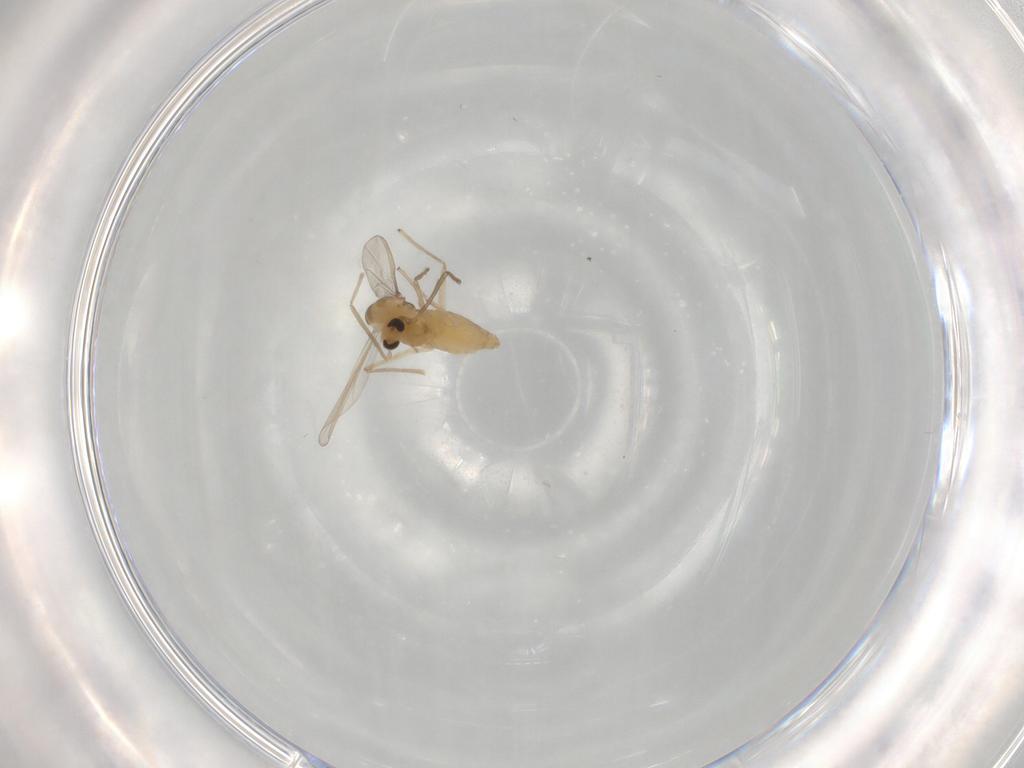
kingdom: Animalia
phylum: Arthropoda
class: Insecta
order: Diptera
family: Chironomidae
